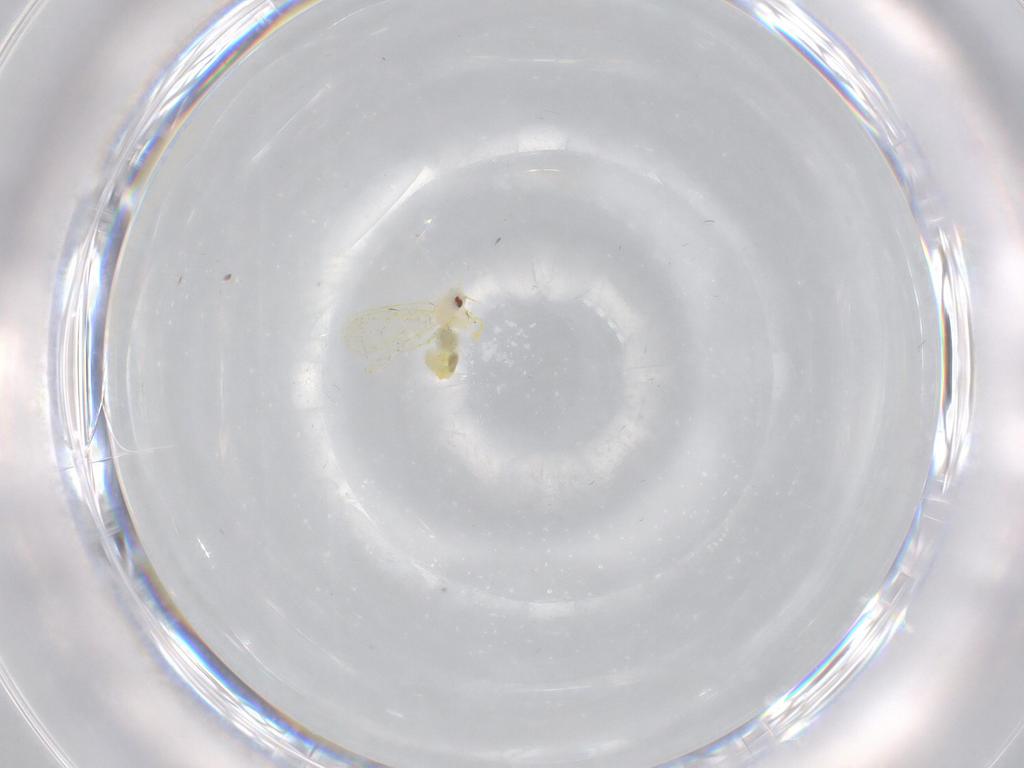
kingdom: Animalia
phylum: Arthropoda
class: Insecta
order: Hemiptera
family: Aleyrodidae
